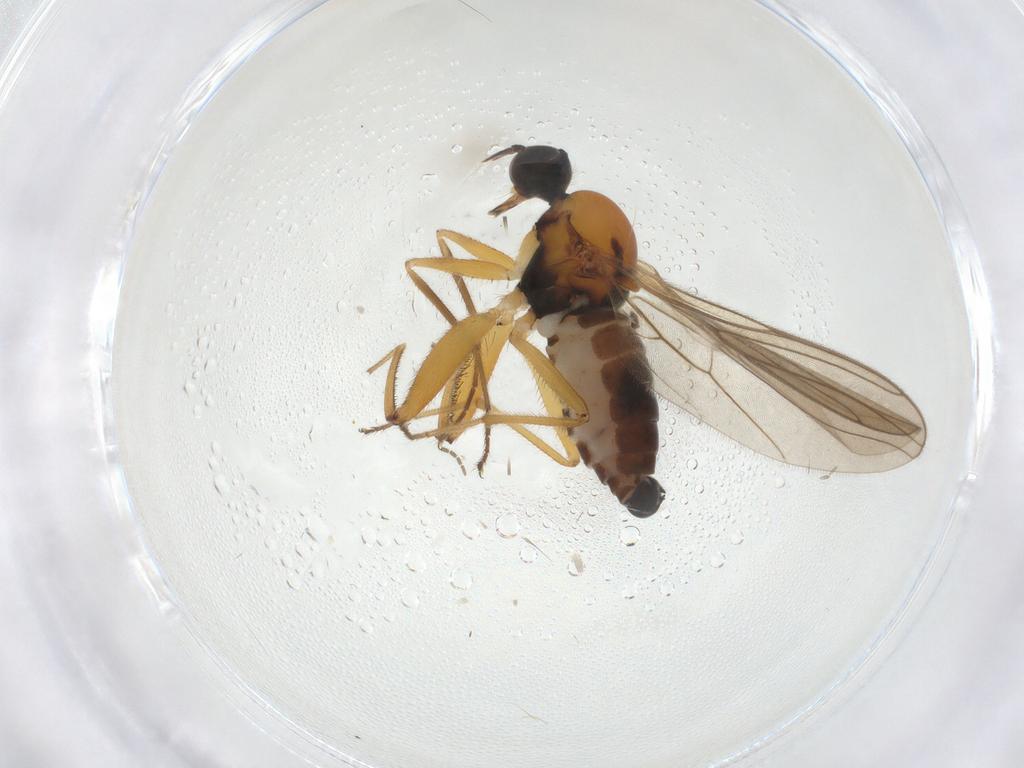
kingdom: Animalia
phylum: Arthropoda
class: Insecta
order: Diptera
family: Hybotidae
